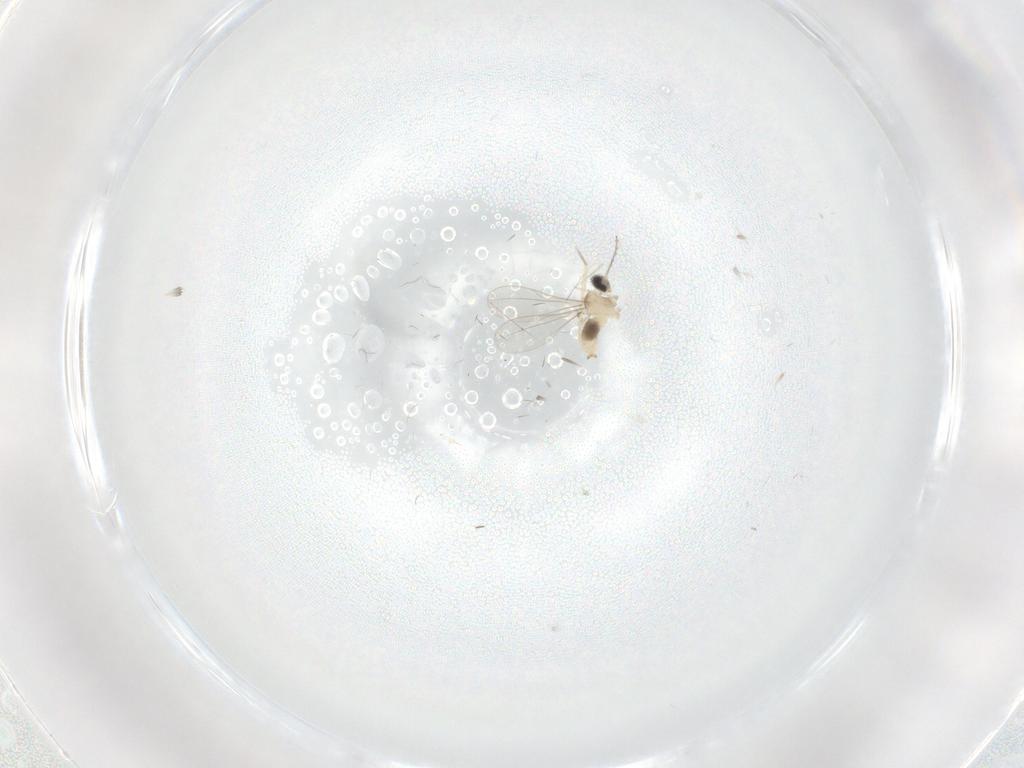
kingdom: Animalia
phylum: Arthropoda
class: Insecta
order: Diptera
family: Cecidomyiidae
